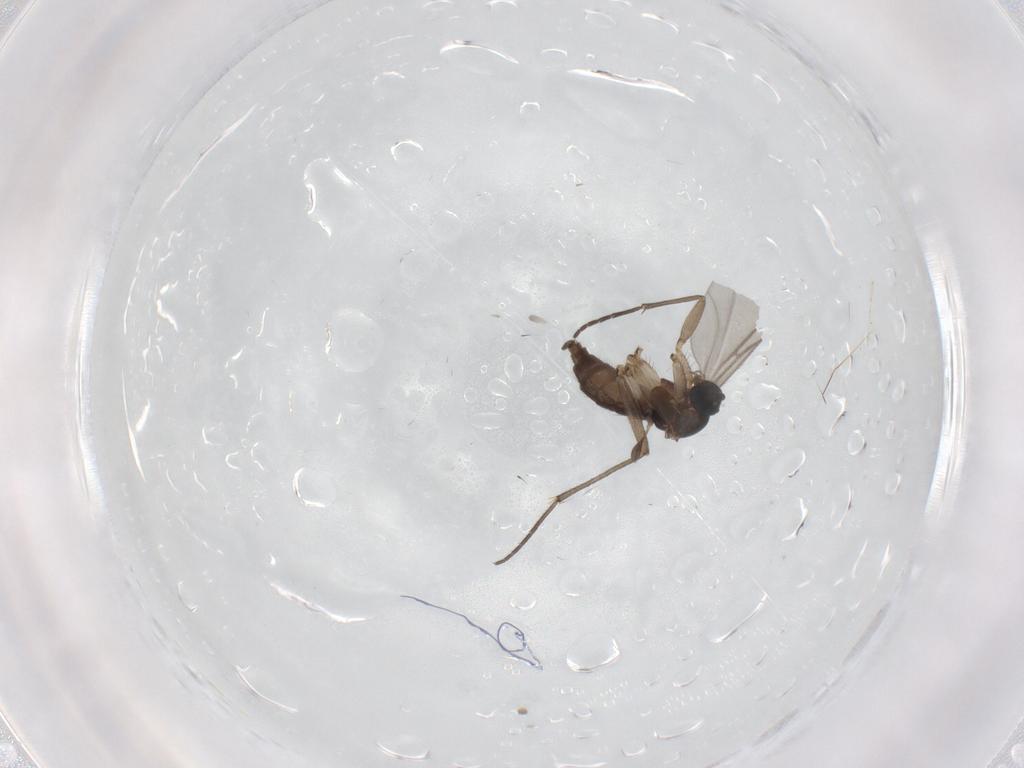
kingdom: Animalia
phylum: Arthropoda
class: Insecta
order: Diptera
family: Sciaridae
